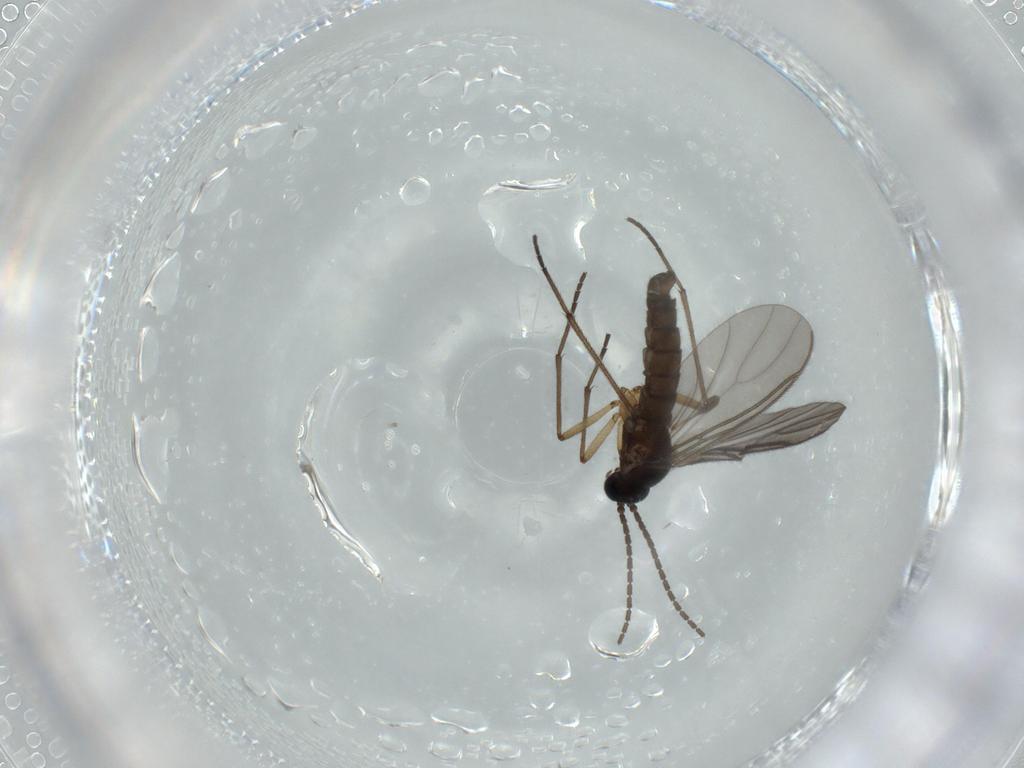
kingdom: Animalia
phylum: Arthropoda
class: Insecta
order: Diptera
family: Sciaridae
